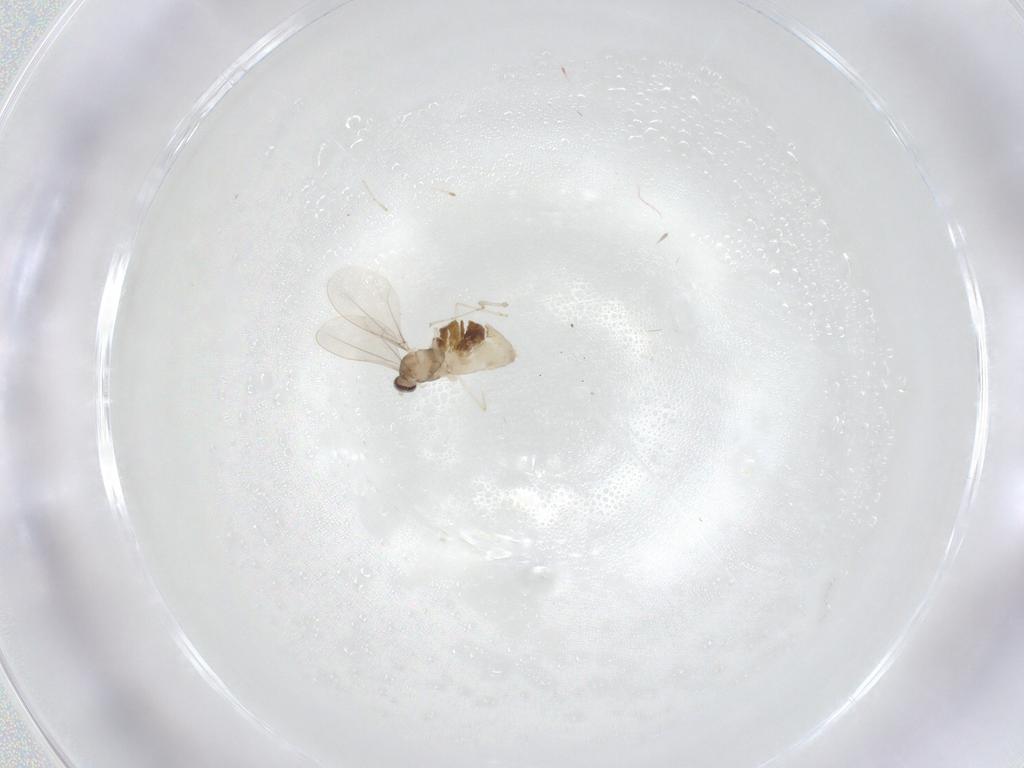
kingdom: Animalia
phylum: Arthropoda
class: Insecta
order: Diptera
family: Cecidomyiidae
